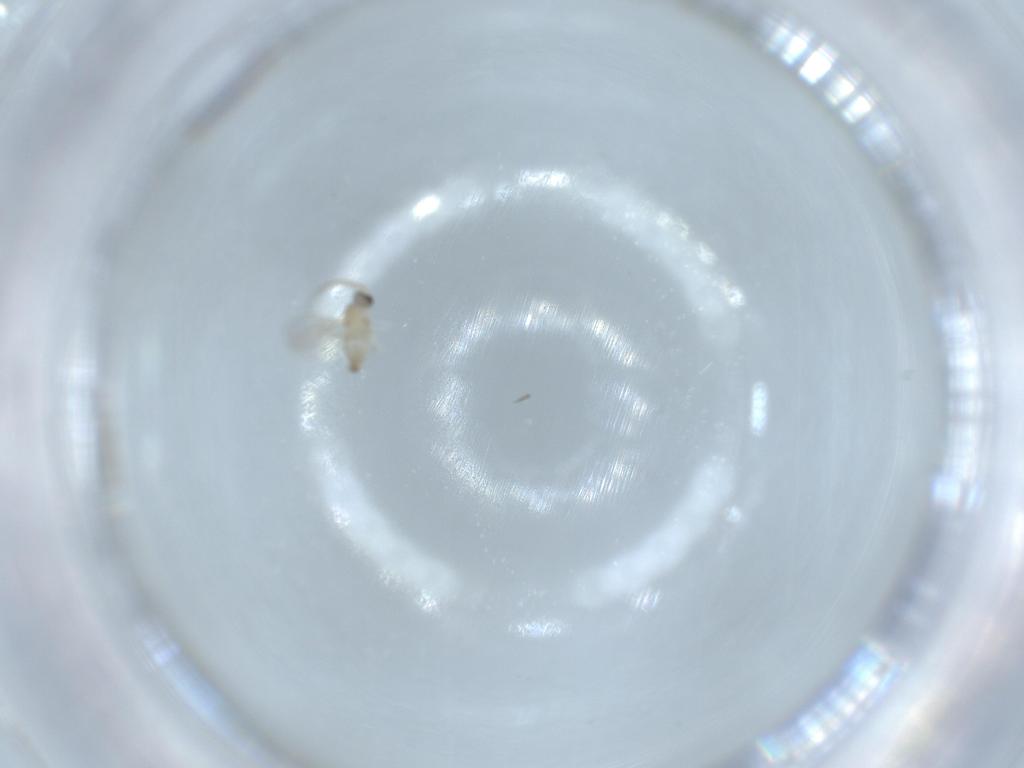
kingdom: Animalia
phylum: Arthropoda
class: Insecta
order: Diptera
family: Cecidomyiidae
